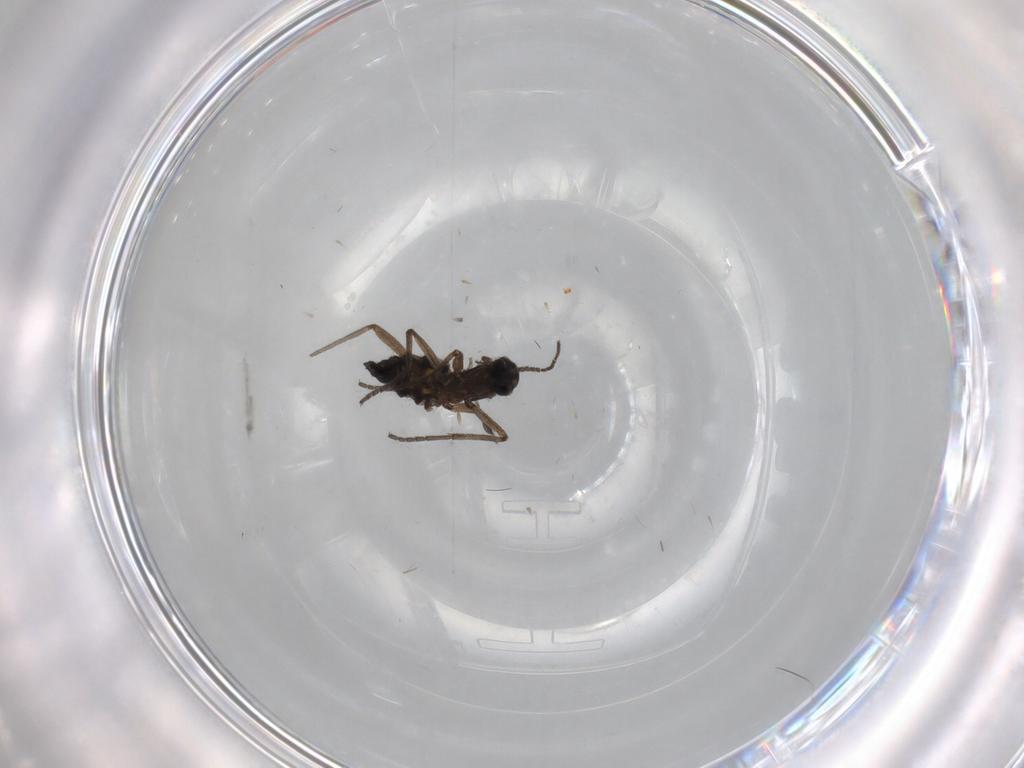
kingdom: Animalia
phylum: Arthropoda
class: Insecta
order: Diptera
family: Sciaridae
